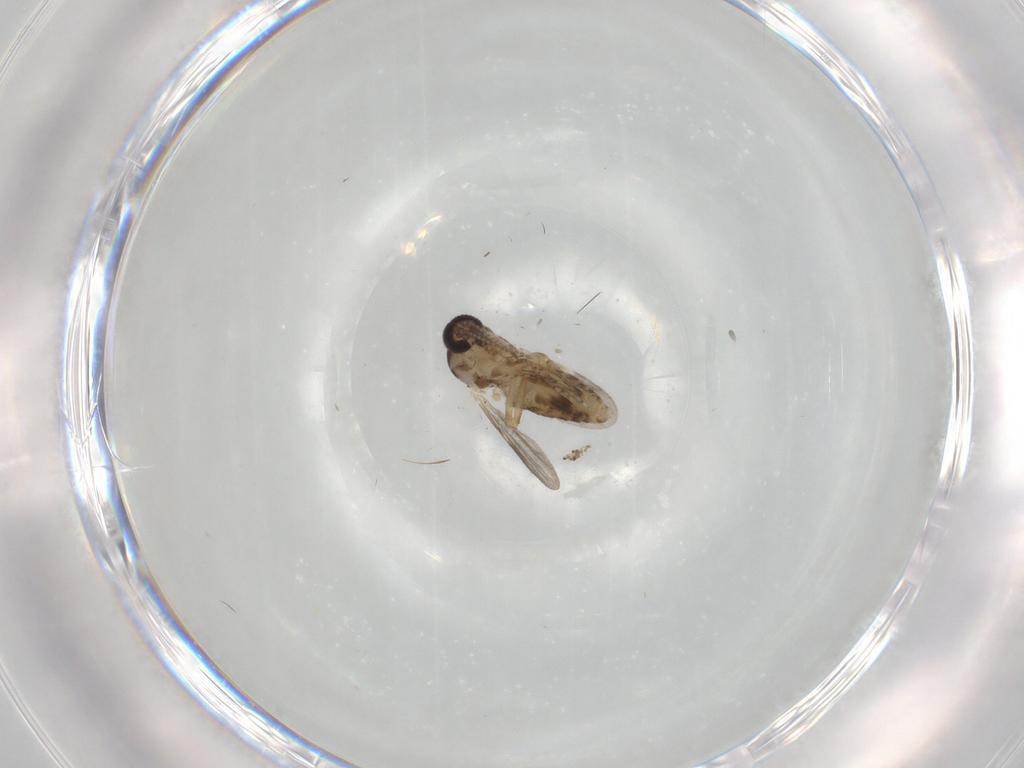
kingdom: Animalia
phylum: Arthropoda
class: Insecta
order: Diptera
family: Ceratopogonidae
